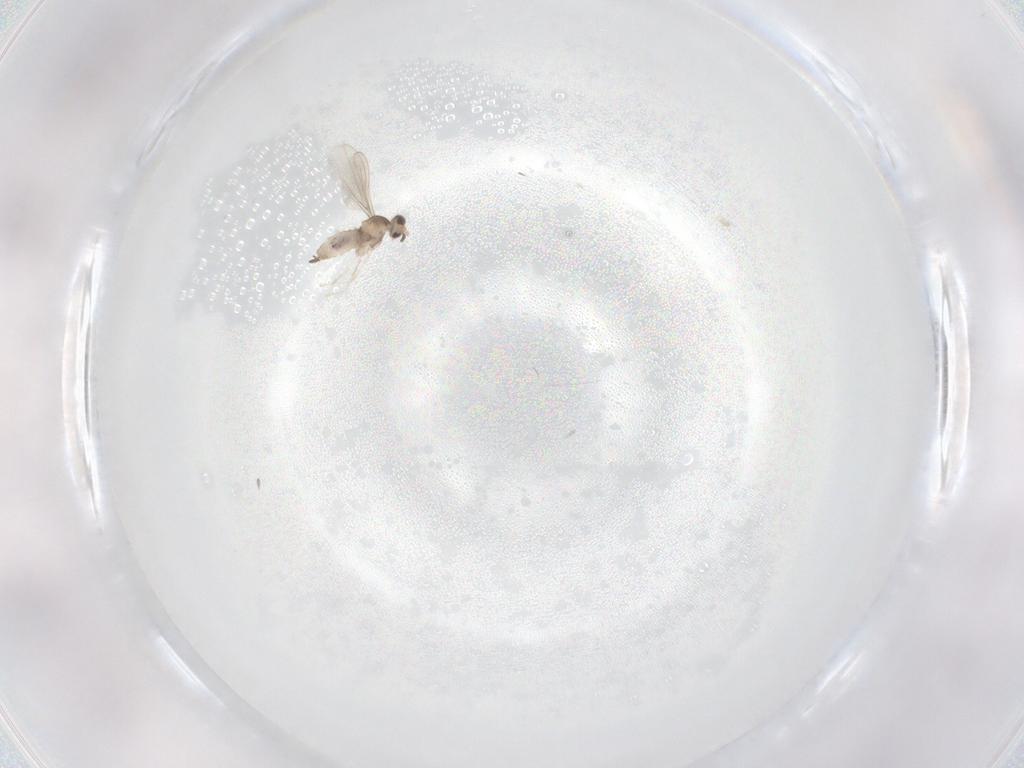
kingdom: Animalia
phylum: Arthropoda
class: Insecta
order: Diptera
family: Cecidomyiidae
